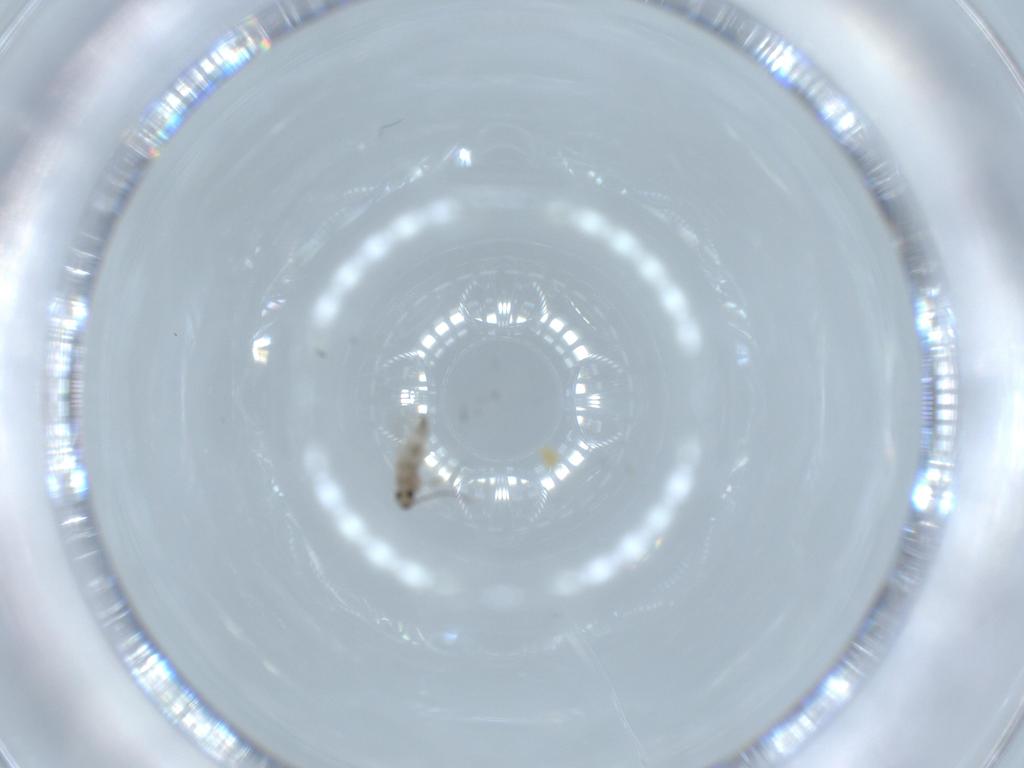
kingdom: Animalia
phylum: Arthropoda
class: Insecta
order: Diptera
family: Cecidomyiidae
